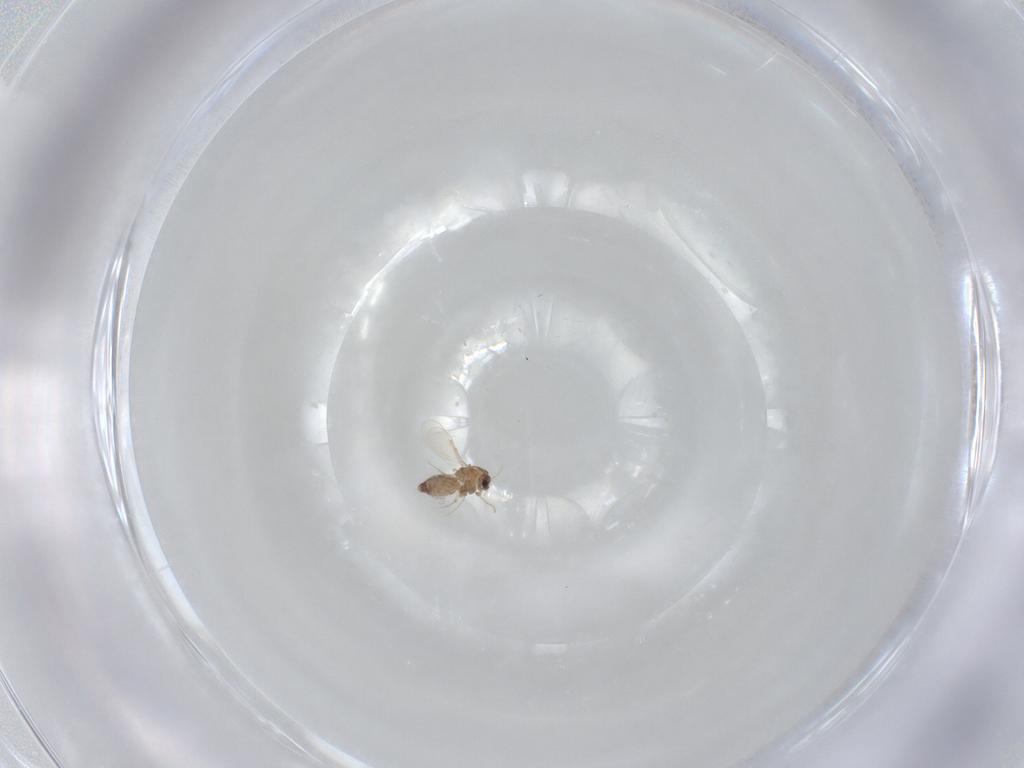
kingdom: Animalia
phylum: Arthropoda
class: Insecta
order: Diptera
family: Chironomidae
